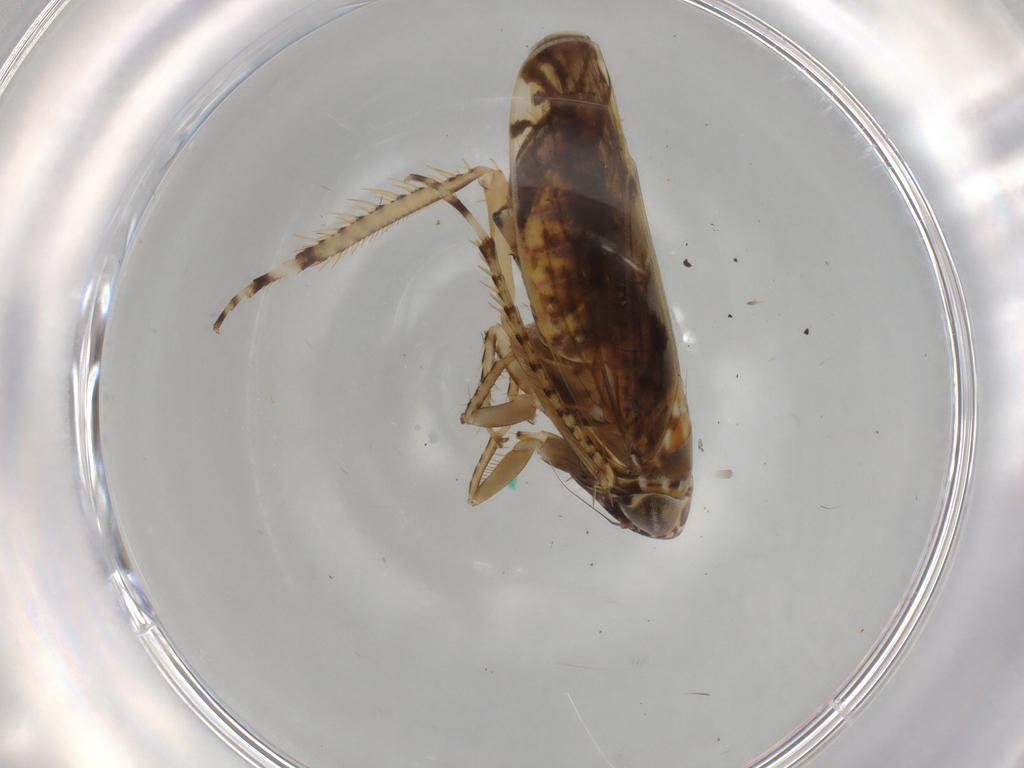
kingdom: Animalia
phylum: Arthropoda
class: Insecta
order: Hemiptera
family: Cicadellidae
